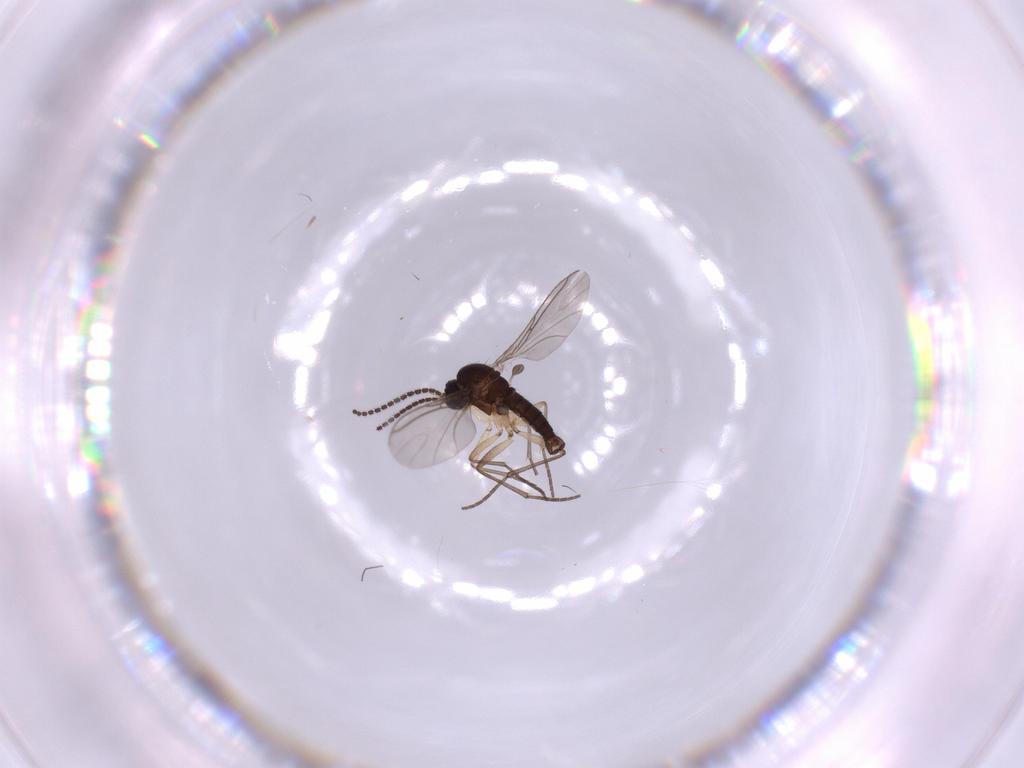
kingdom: Animalia
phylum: Arthropoda
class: Insecta
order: Diptera
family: Sciaridae
